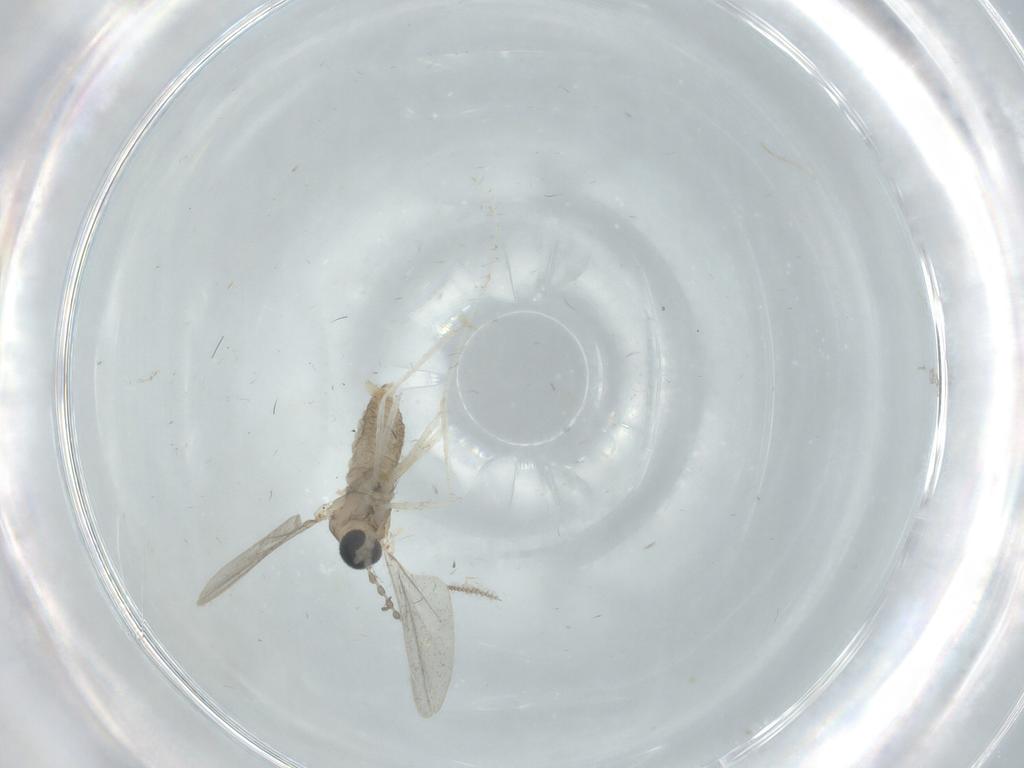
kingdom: Animalia
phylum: Arthropoda
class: Insecta
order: Diptera
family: Cecidomyiidae
